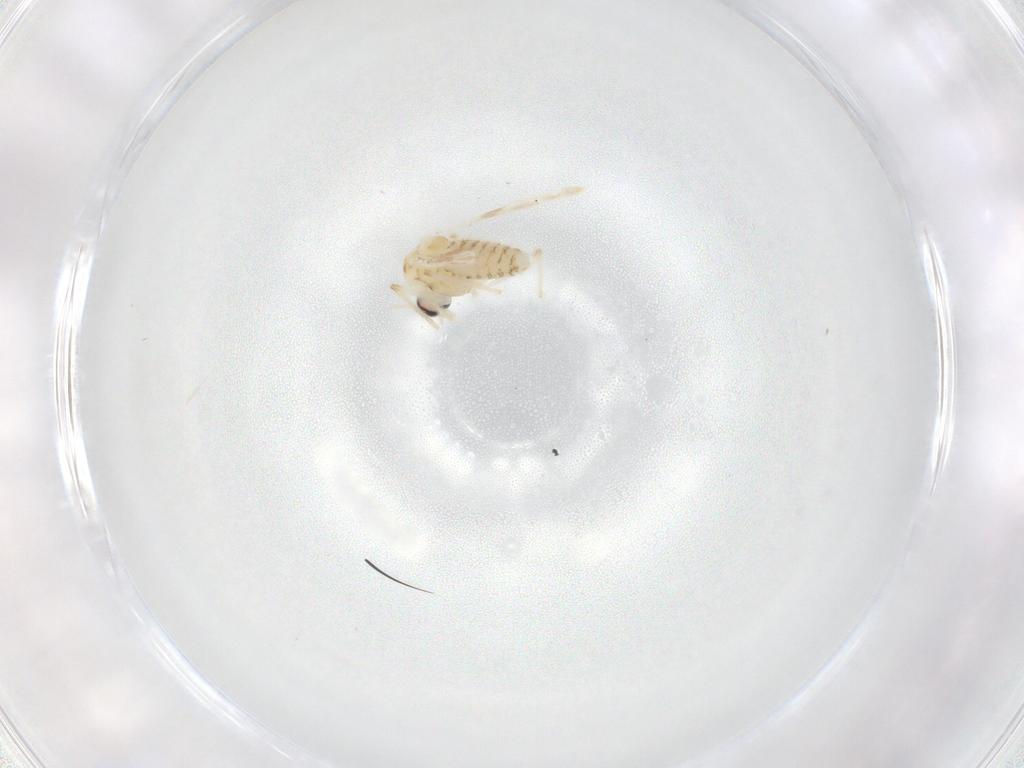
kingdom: Animalia
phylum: Arthropoda
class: Insecta
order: Diptera
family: Chironomidae
